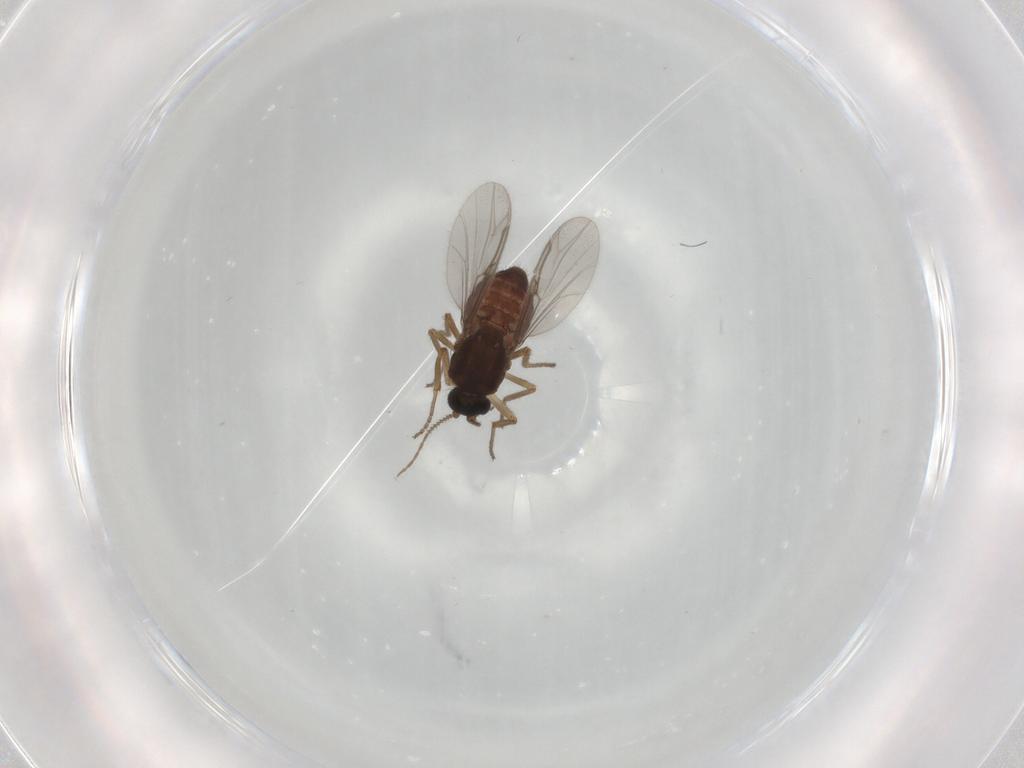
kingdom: Animalia
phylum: Arthropoda
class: Insecta
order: Diptera
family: Ceratopogonidae
